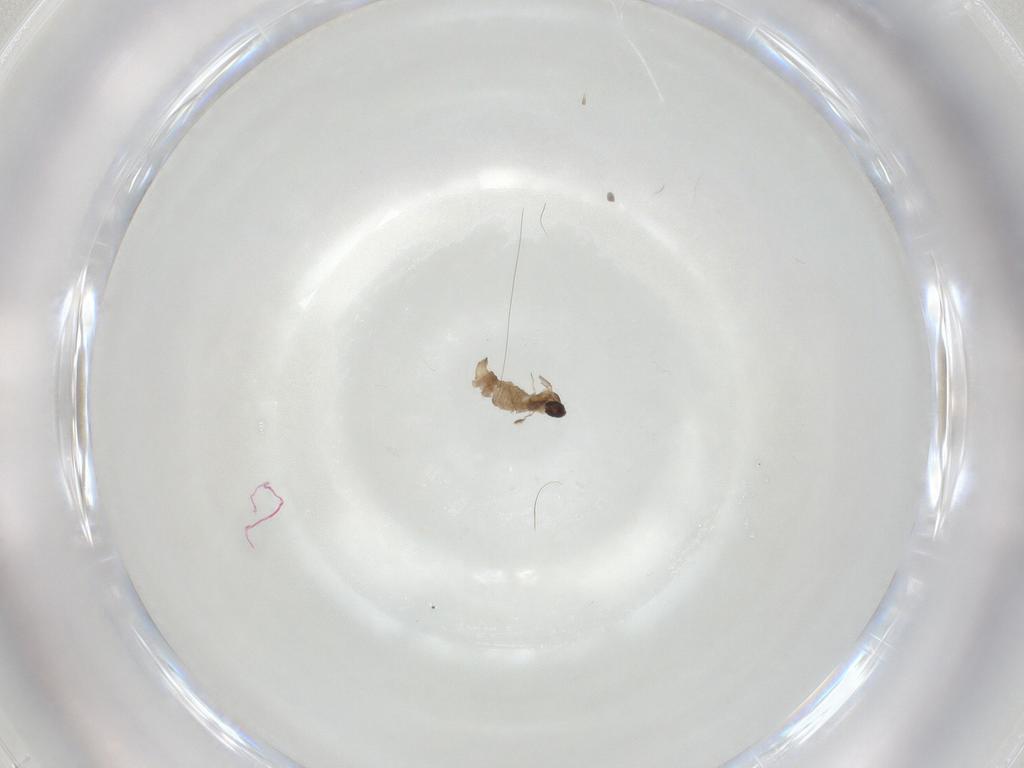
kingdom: Animalia
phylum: Arthropoda
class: Insecta
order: Diptera
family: Cecidomyiidae
